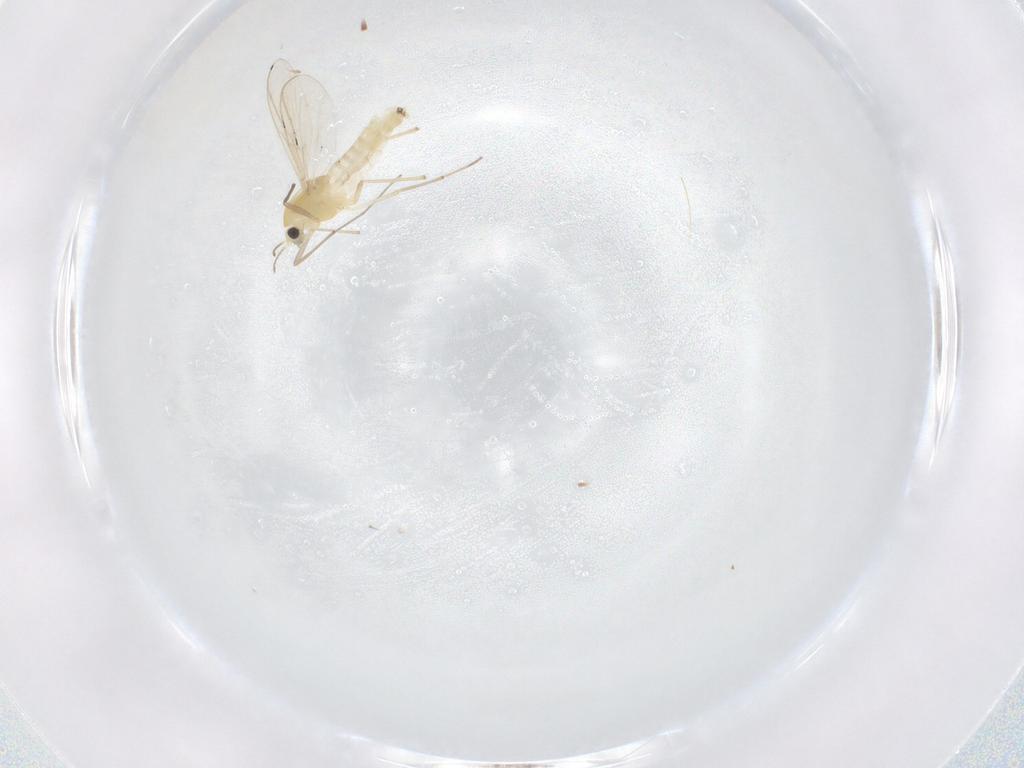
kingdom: Animalia
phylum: Arthropoda
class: Insecta
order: Diptera
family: Chironomidae
